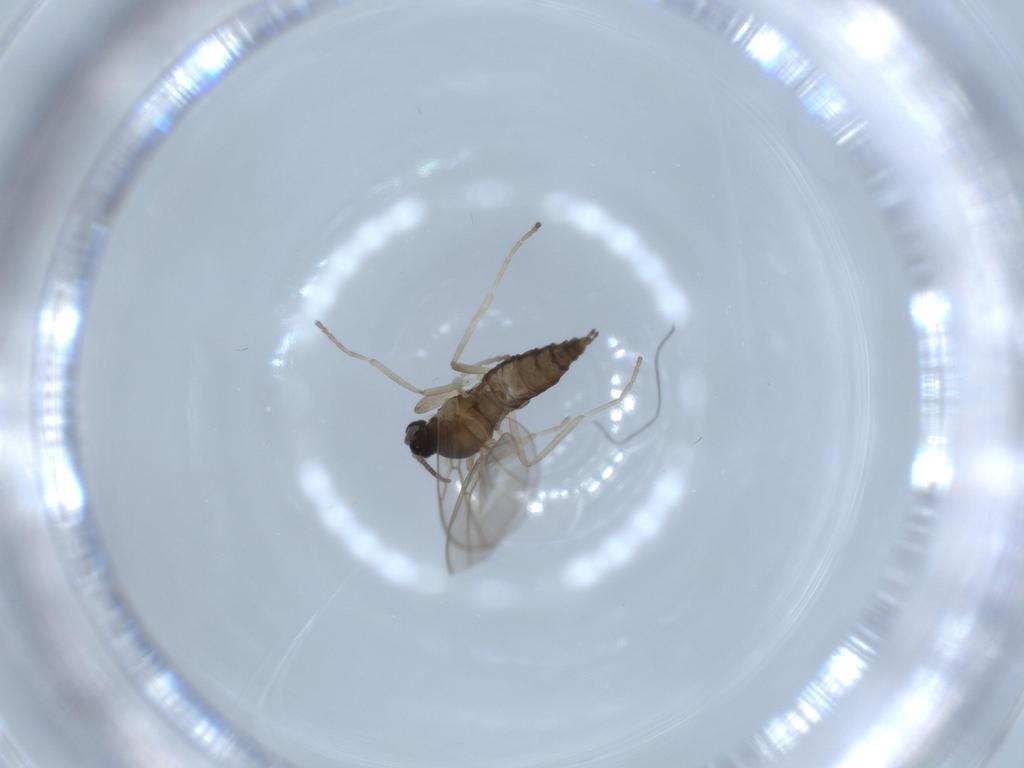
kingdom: Animalia
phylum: Arthropoda
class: Insecta
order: Diptera
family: Cecidomyiidae
